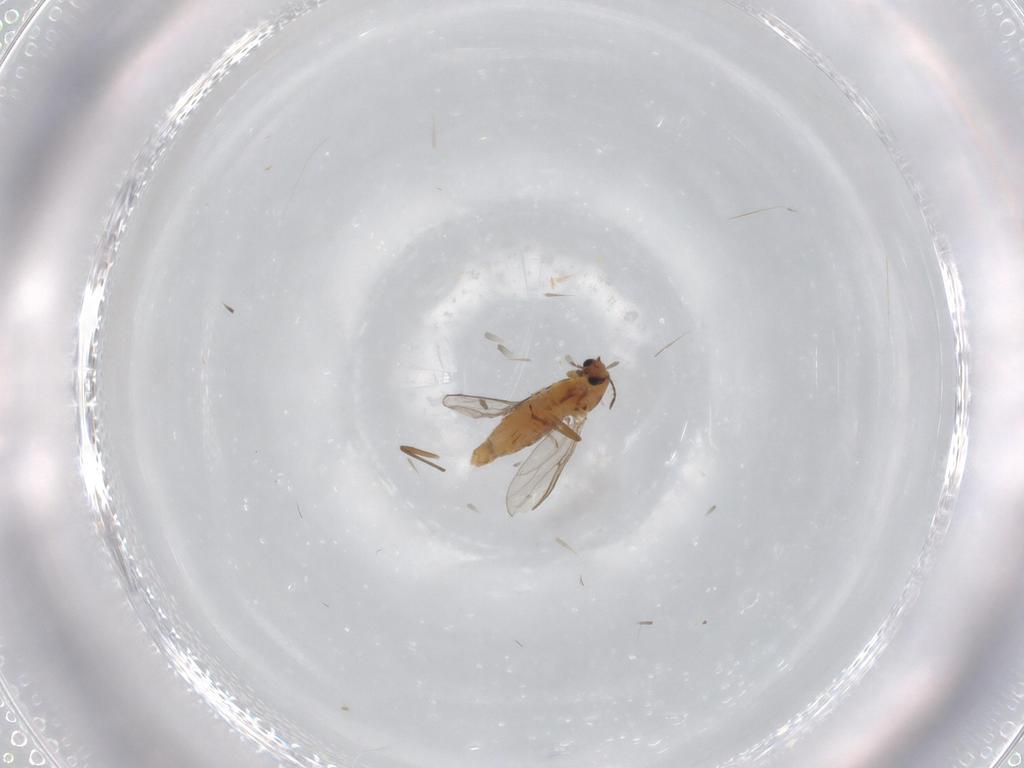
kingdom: Animalia
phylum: Arthropoda
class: Insecta
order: Diptera
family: Chironomidae
